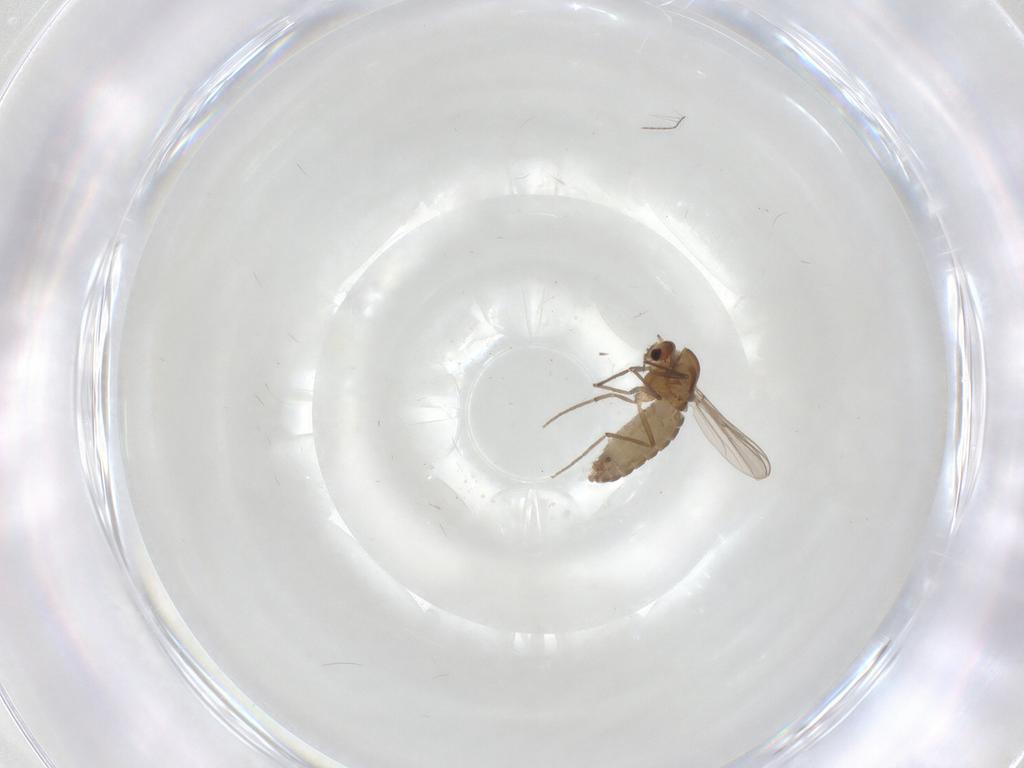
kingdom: Animalia
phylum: Arthropoda
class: Insecta
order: Diptera
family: Chironomidae
